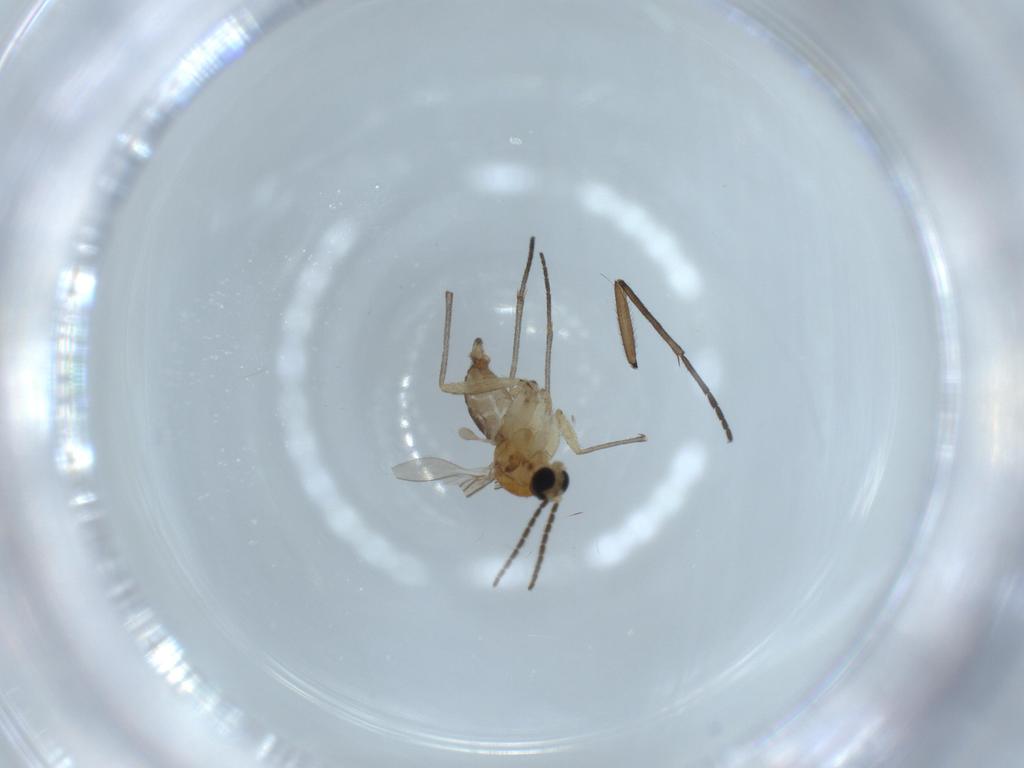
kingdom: Animalia
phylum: Arthropoda
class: Insecta
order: Diptera
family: Sciaridae
